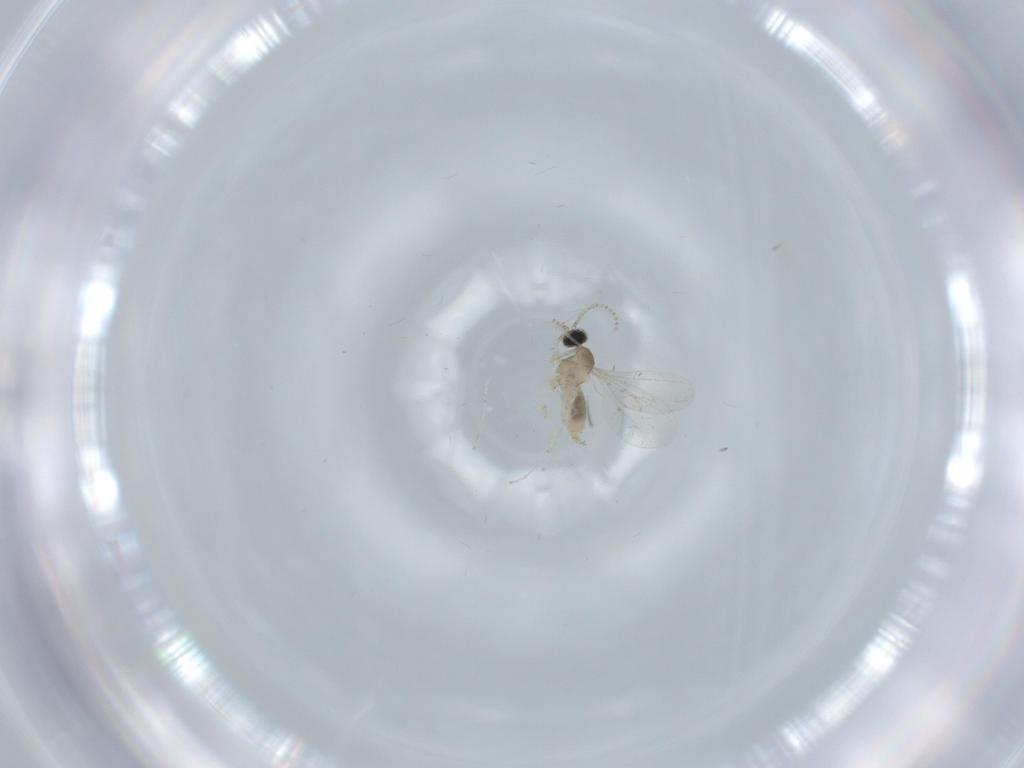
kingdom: Animalia
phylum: Arthropoda
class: Insecta
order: Diptera
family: Cecidomyiidae
